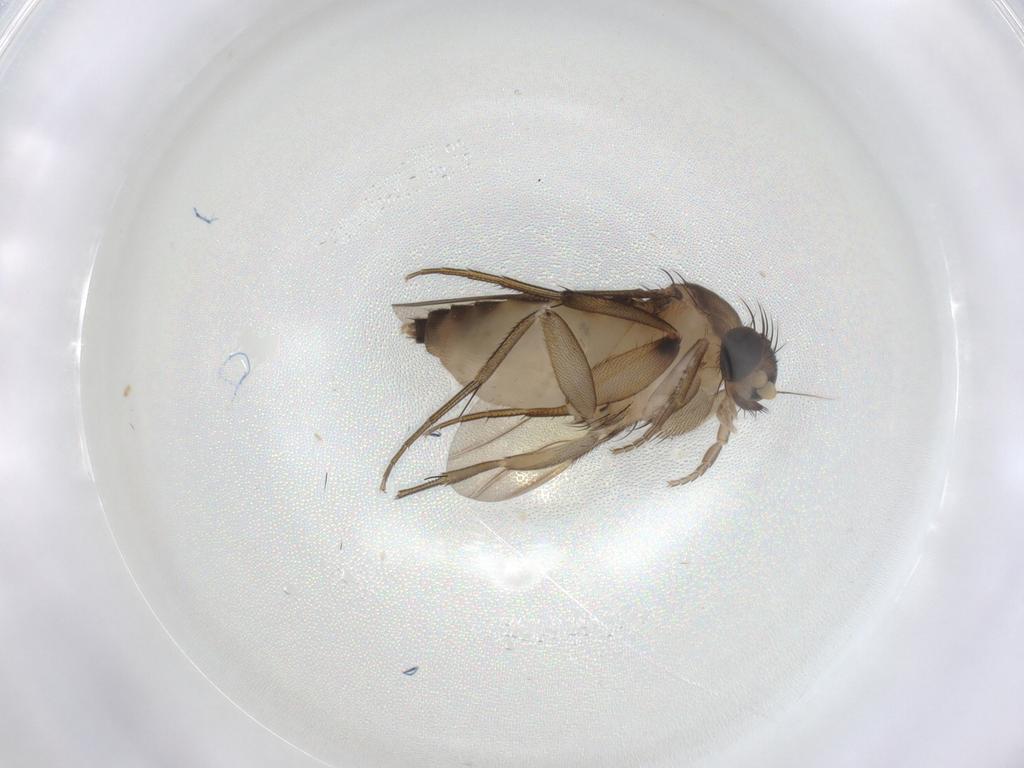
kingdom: Animalia
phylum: Arthropoda
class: Insecta
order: Diptera
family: Phoridae
